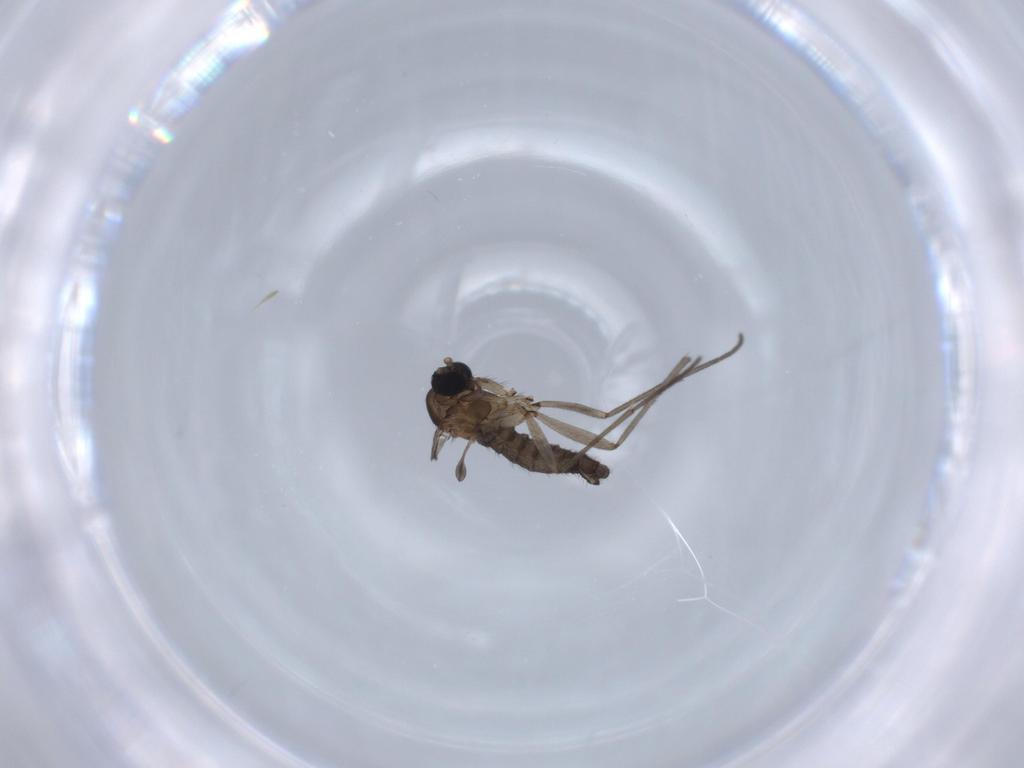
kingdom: Animalia
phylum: Arthropoda
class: Insecta
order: Diptera
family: Sciaridae
